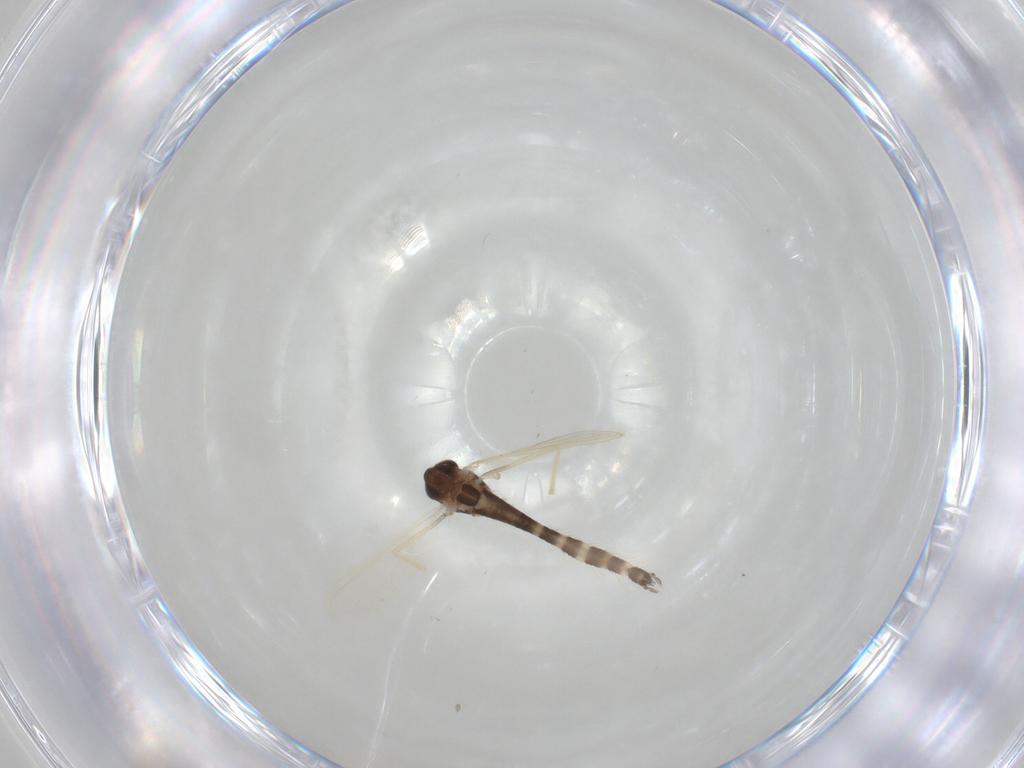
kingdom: Animalia
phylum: Arthropoda
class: Insecta
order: Diptera
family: Chironomidae
